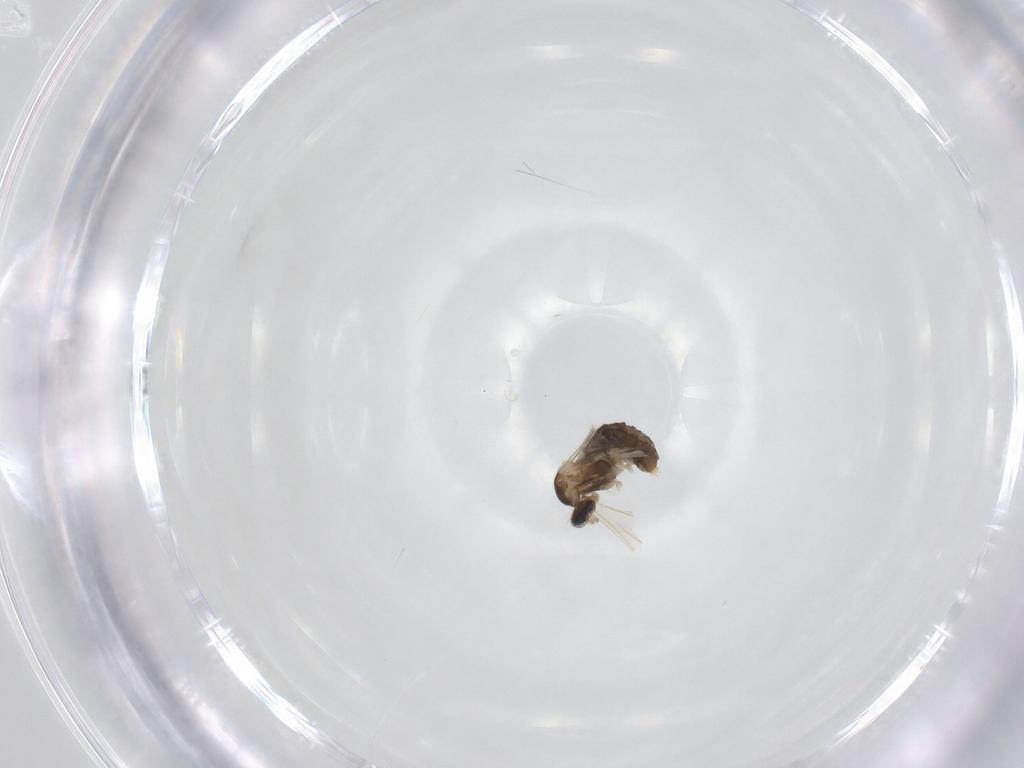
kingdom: Animalia
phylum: Arthropoda
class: Insecta
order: Diptera
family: Cecidomyiidae
